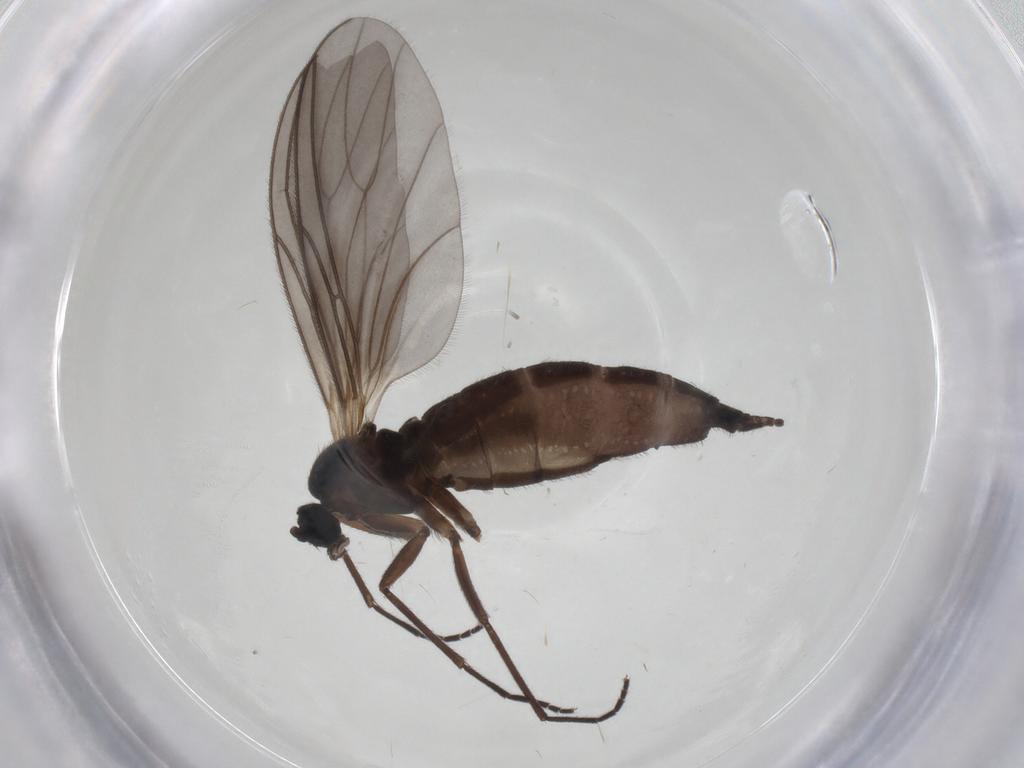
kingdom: Animalia
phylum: Arthropoda
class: Insecta
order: Diptera
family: Sciaridae
